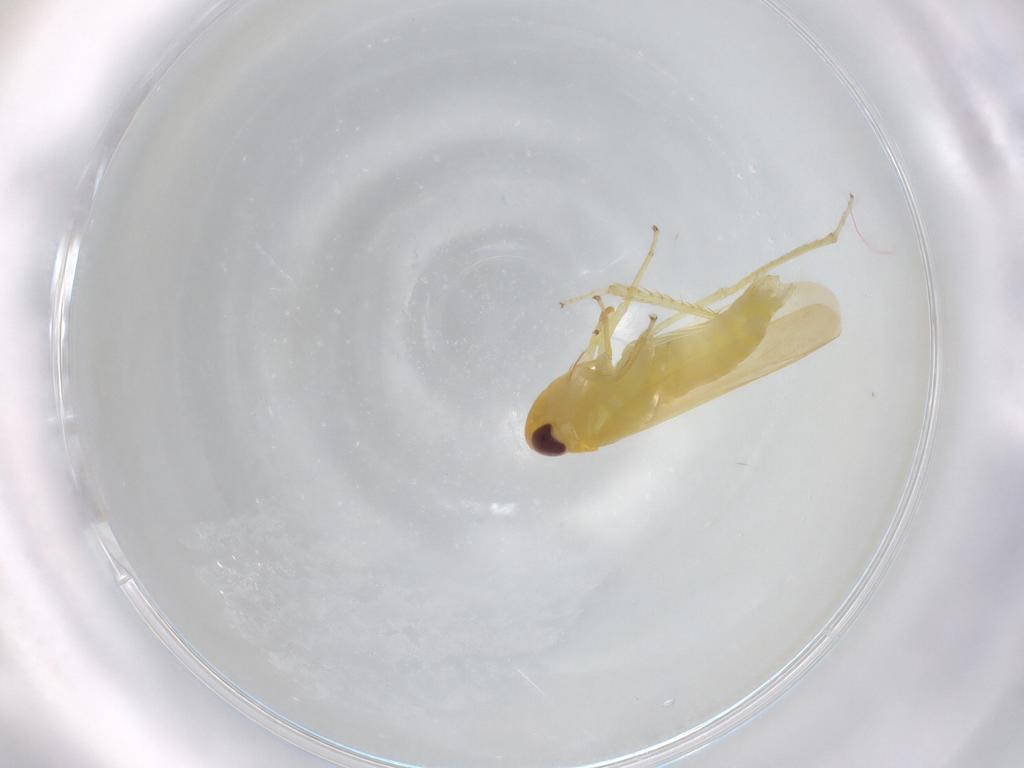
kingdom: Animalia
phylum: Arthropoda
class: Insecta
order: Hemiptera
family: Cicadellidae
